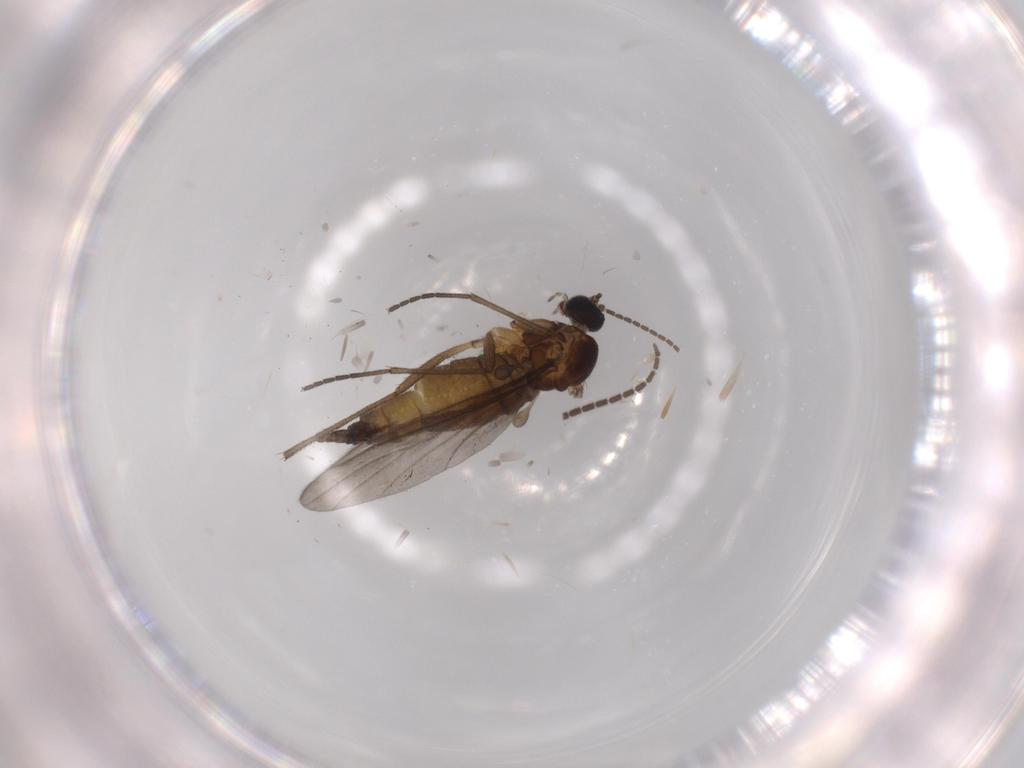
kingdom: Animalia
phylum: Arthropoda
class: Insecta
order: Diptera
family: Sciaridae
